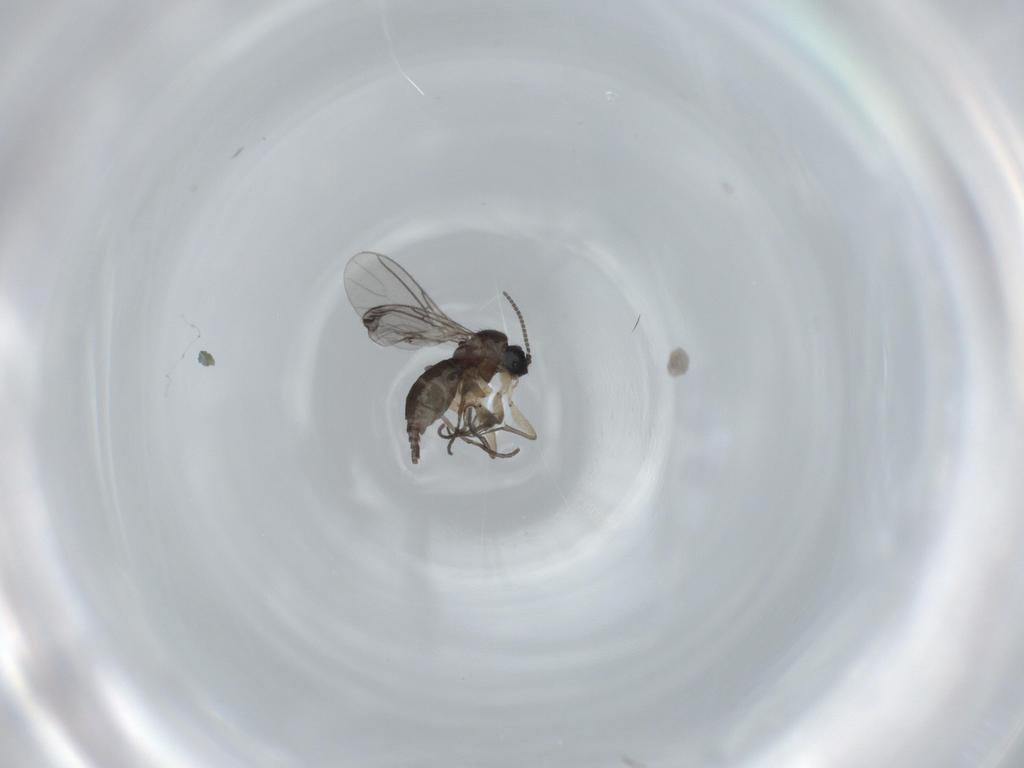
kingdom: Animalia
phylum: Arthropoda
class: Insecta
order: Diptera
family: Sciaridae
